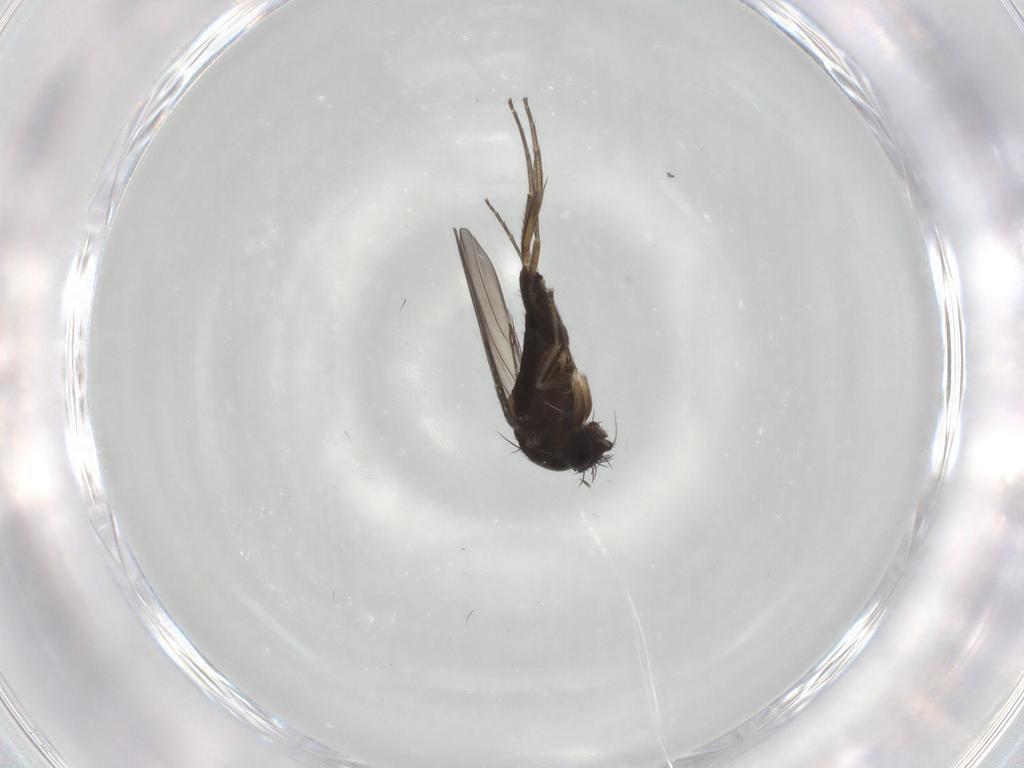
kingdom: Animalia
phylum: Arthropoda
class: Insecta
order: Diptera
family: Phoridae
